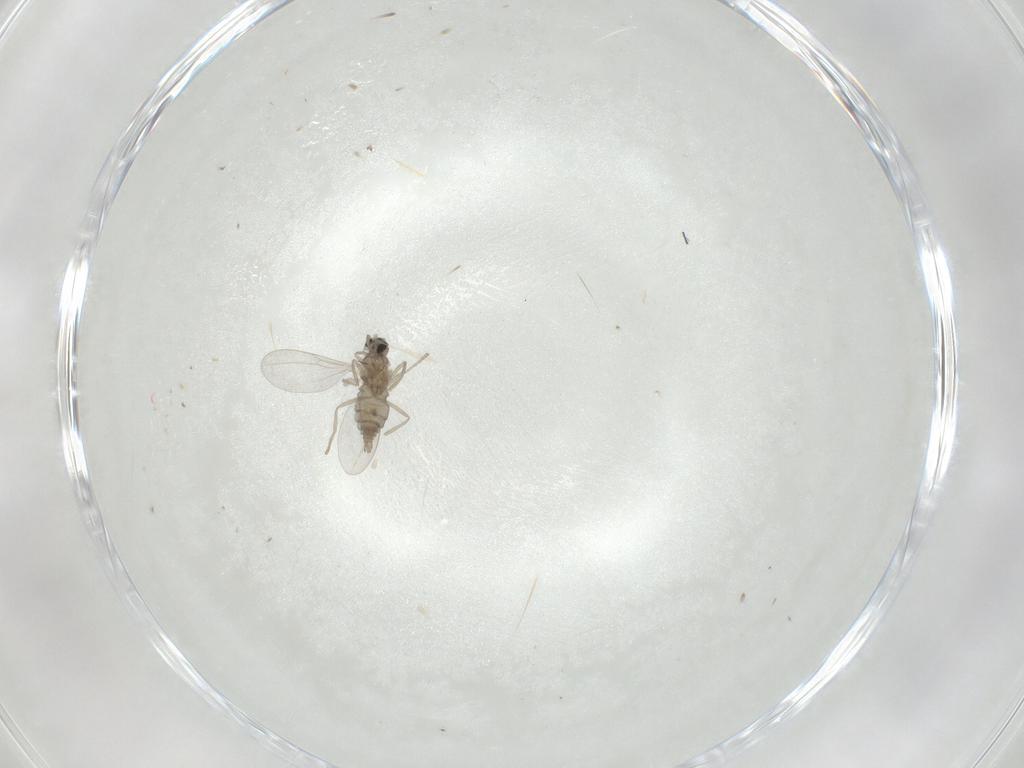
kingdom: Animalia
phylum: Arthropoda
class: Insecta
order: Diptera
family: Cecidomyiidae
